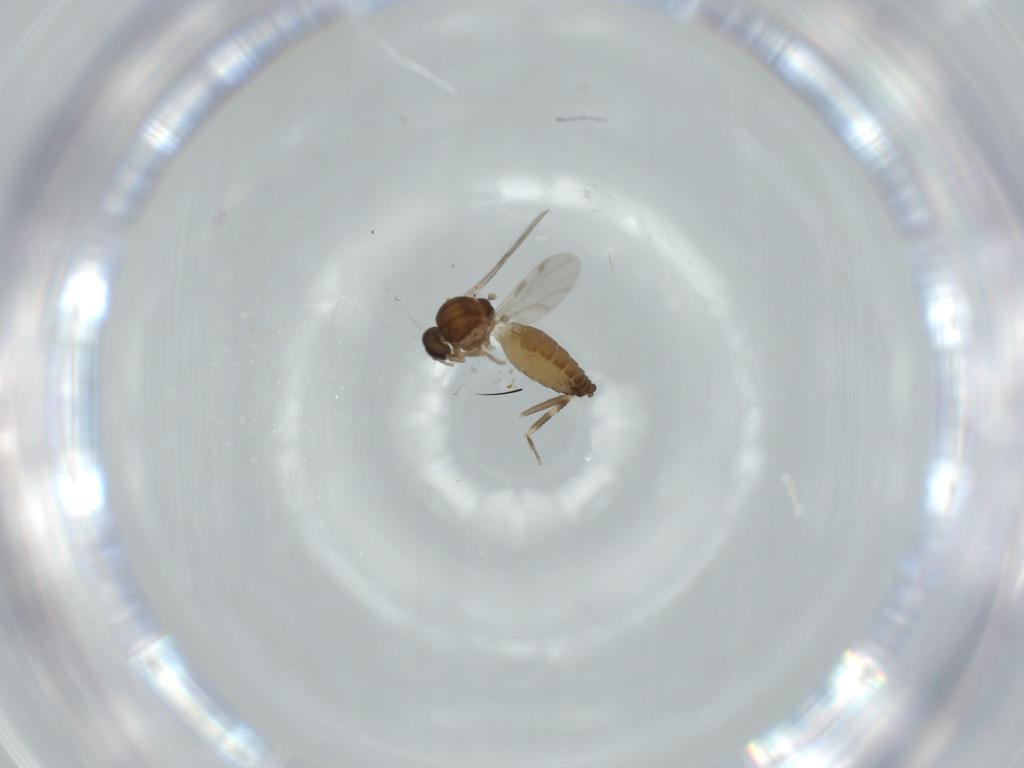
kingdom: Animalia
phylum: Arthropoda
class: Insecta
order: Diptera
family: Ceratopogonidae
